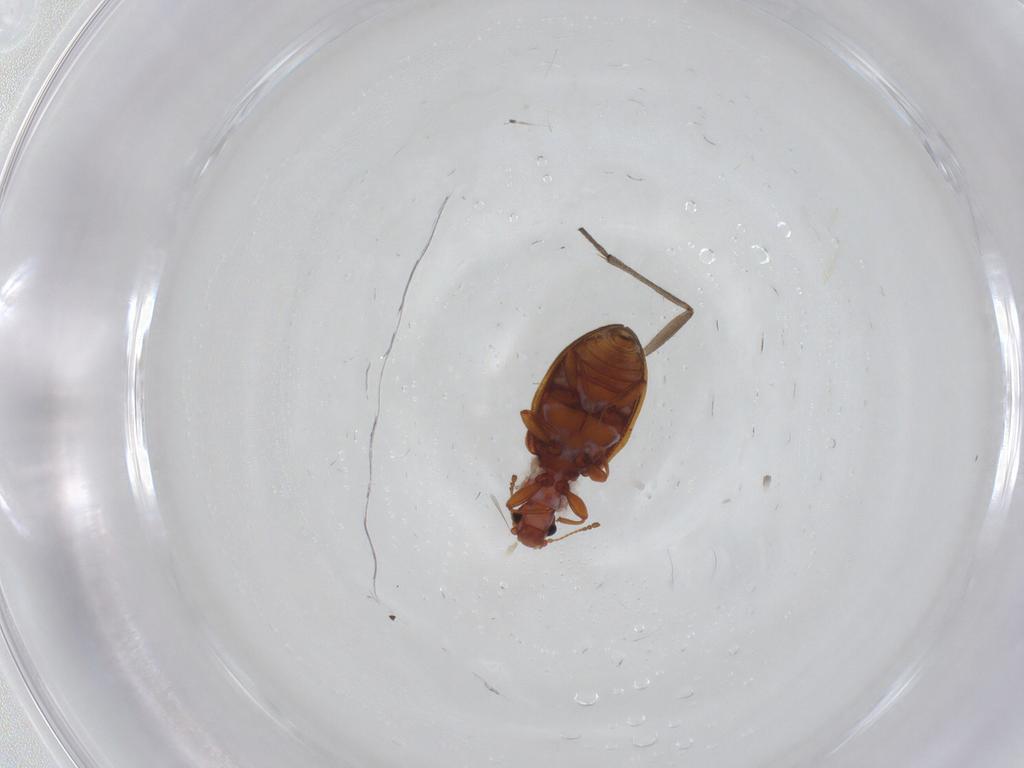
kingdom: Animalia
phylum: Arthropoda
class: Insecta
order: Coleoptera
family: Latridiidae
